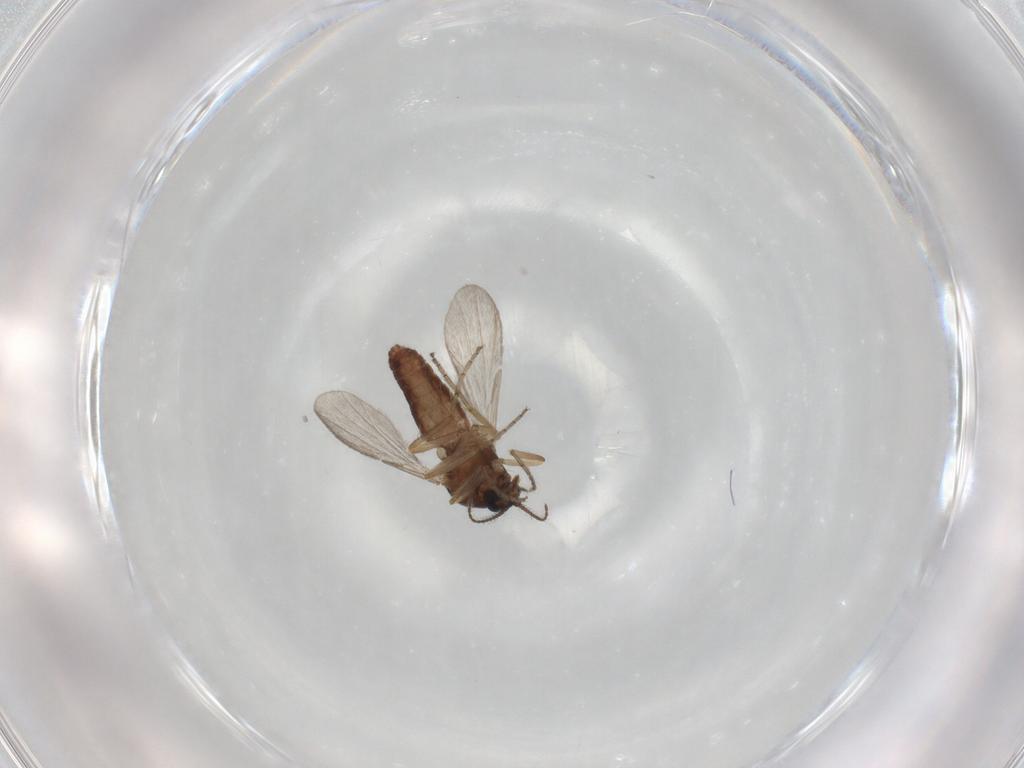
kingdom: Animalia
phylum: Arthropoda
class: Insecta
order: Diptera
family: Ceratopogonidae
